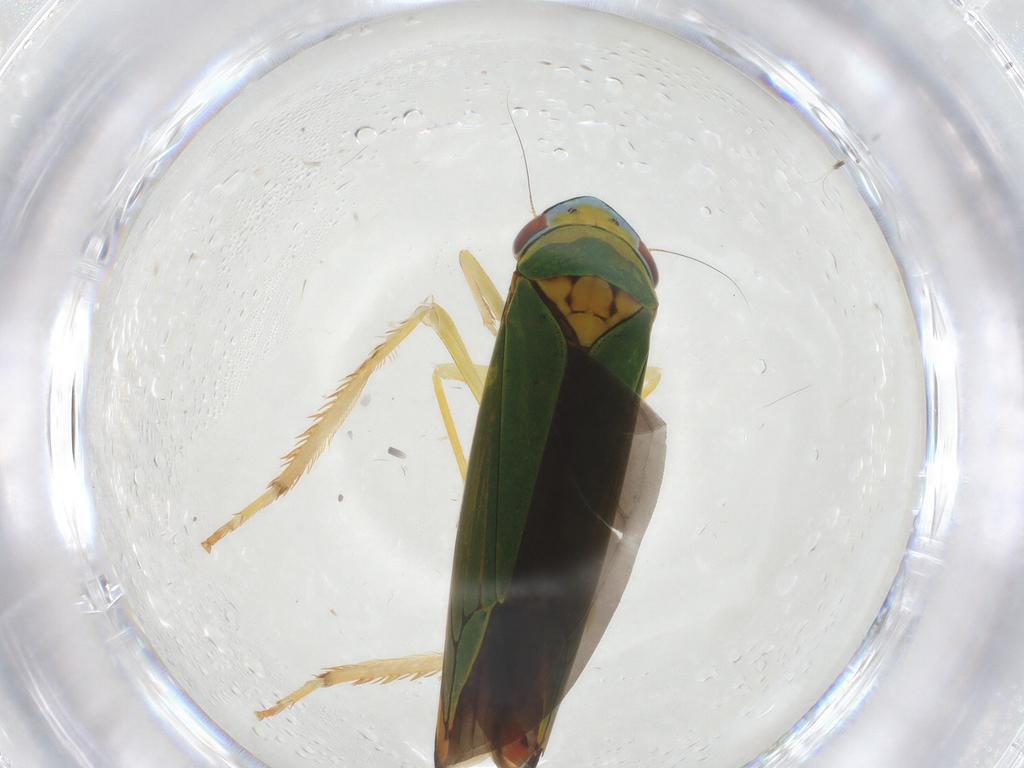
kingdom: Animalia
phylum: Arthropoda
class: Insecta
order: Hemiptera
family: Cicadellidae
